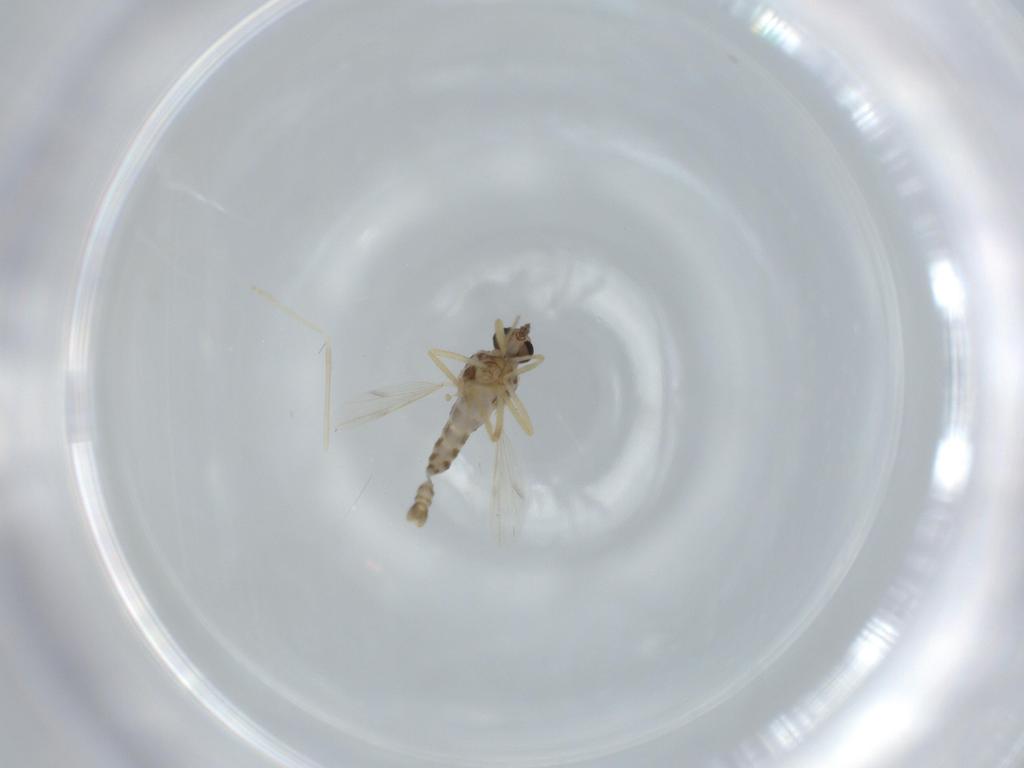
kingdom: Animalia
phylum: Arthropoda
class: Insecta
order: Diptera
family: Ceratopogonidae
